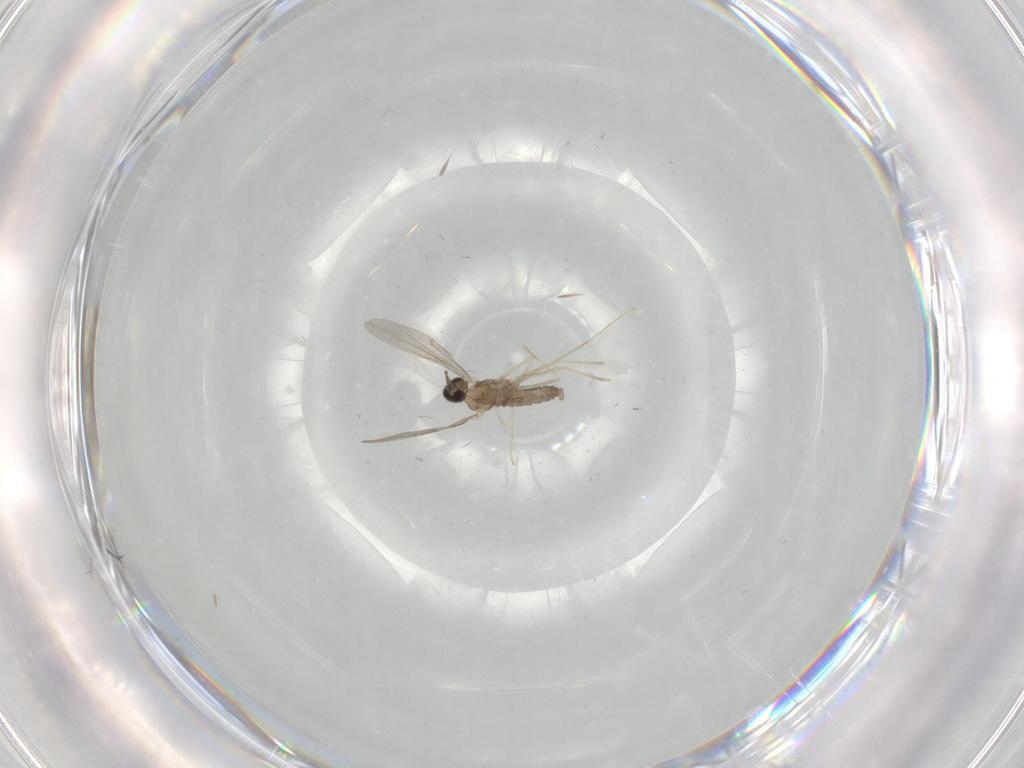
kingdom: Animalia
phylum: Arthropoda
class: Insecta
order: Diptera
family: Cecidomyiidae
